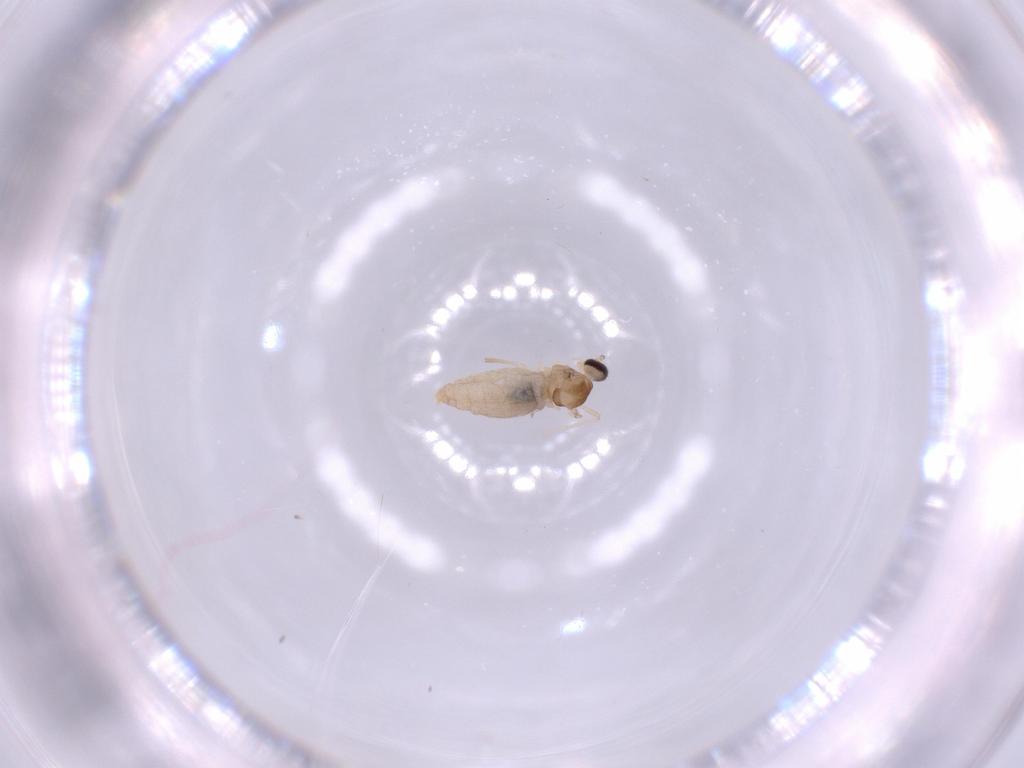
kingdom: Animalia
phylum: Arthropoda
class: Insecta
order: Diptera
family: Cecidomyiidae
